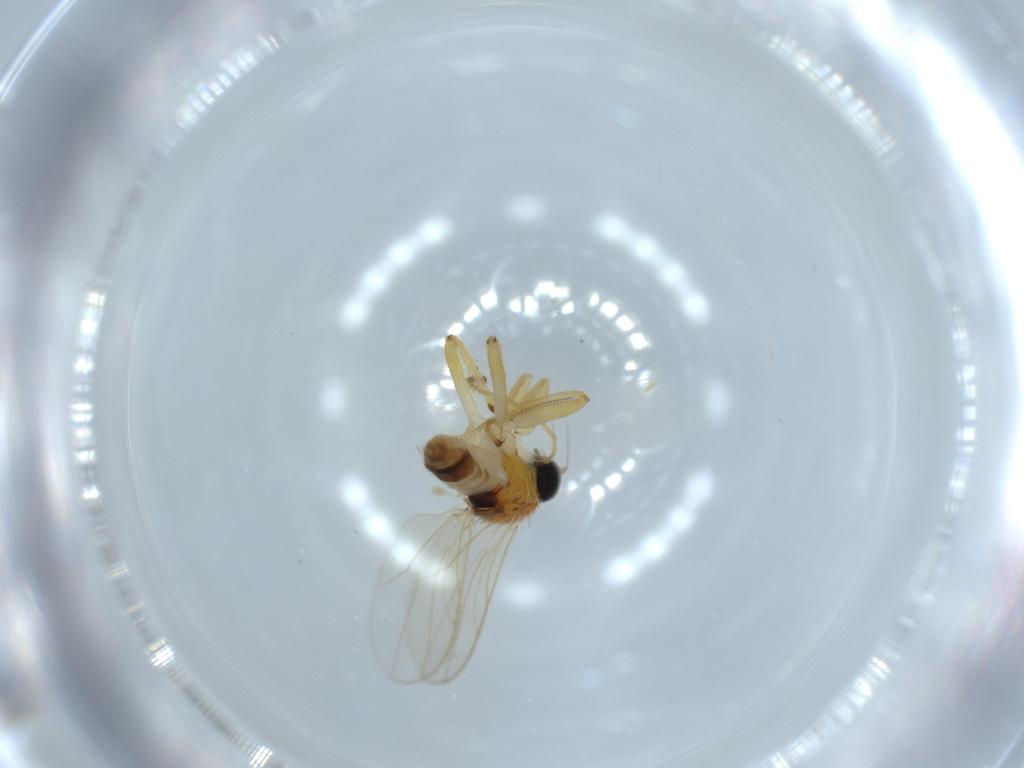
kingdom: Animalia
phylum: Arthropoda
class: Insecta
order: Diptera
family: Hybotidae
